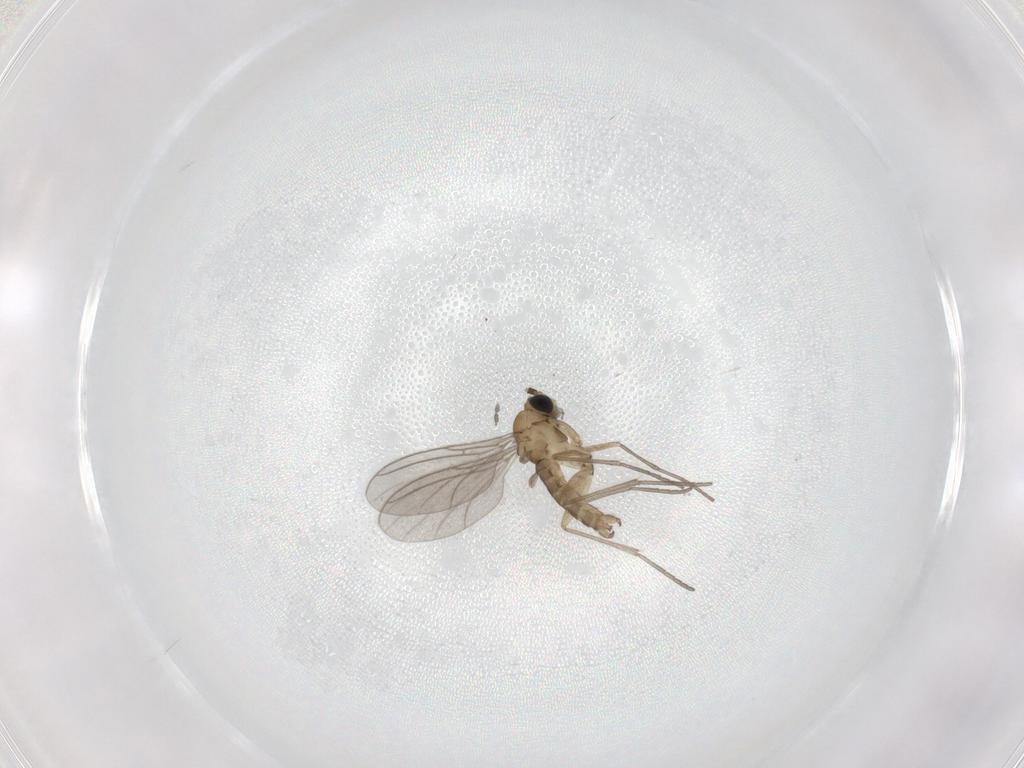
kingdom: Animalia
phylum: Arthropoda
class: Insecta
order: Diptera
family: Sciaridae
